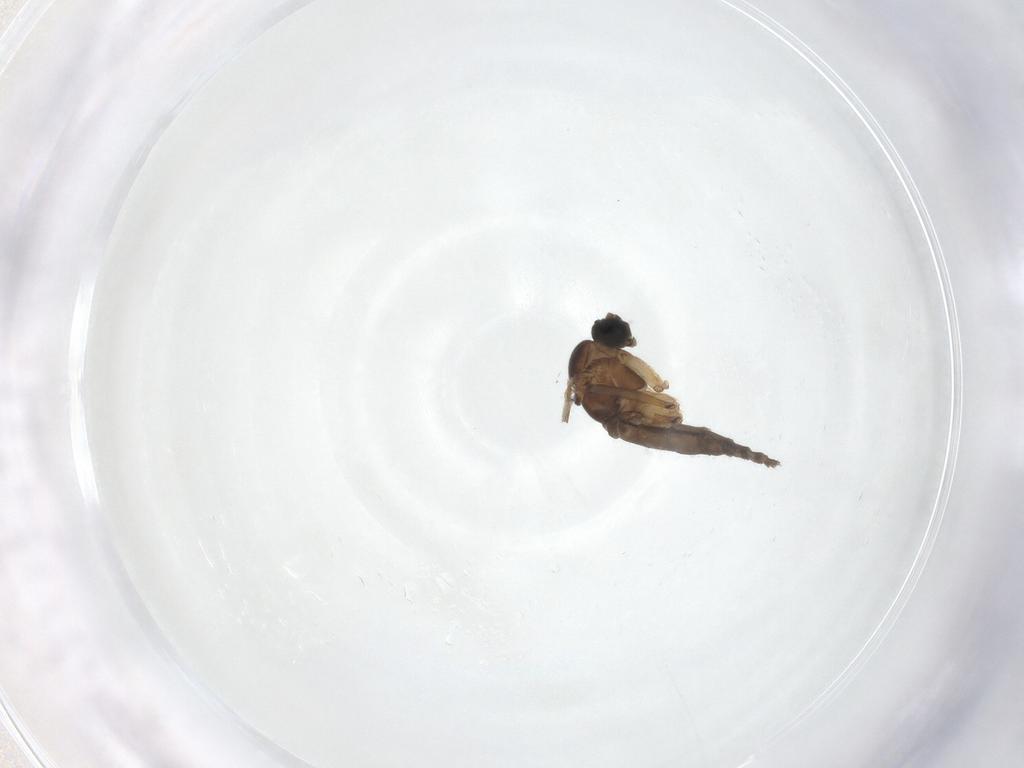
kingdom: Animalia
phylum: Arthropoda
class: Insecta
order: Diptera
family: Sciaridae
